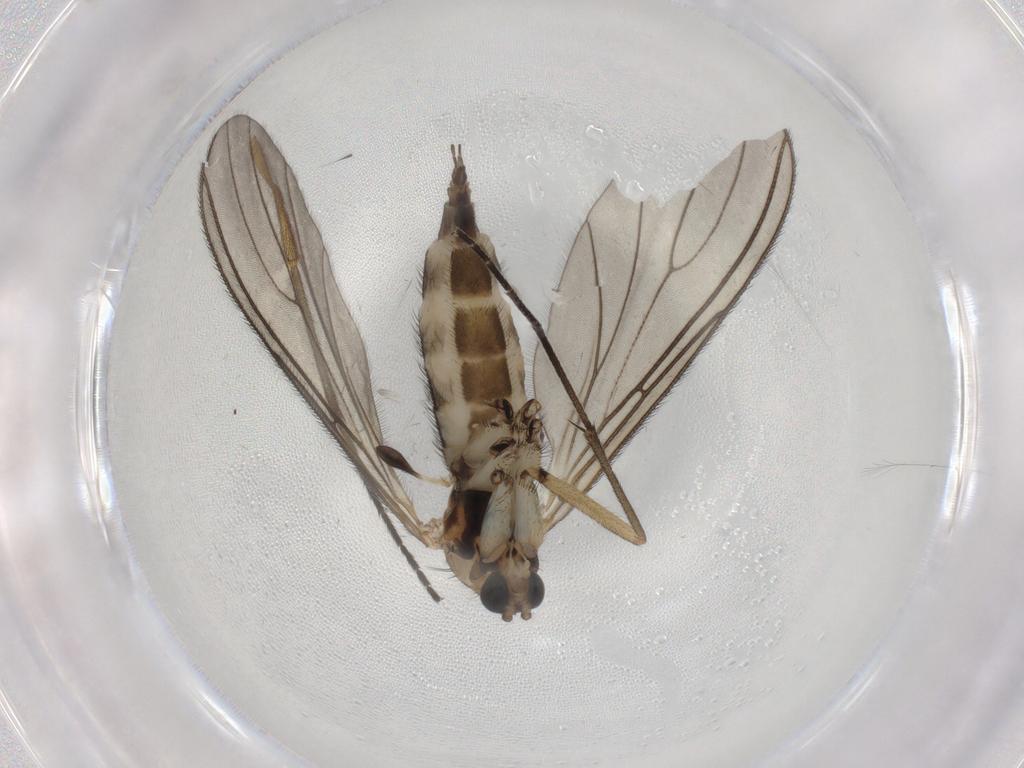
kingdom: Animalia
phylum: Arthropoda
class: Insecta
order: Diptera
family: Sciaridae
